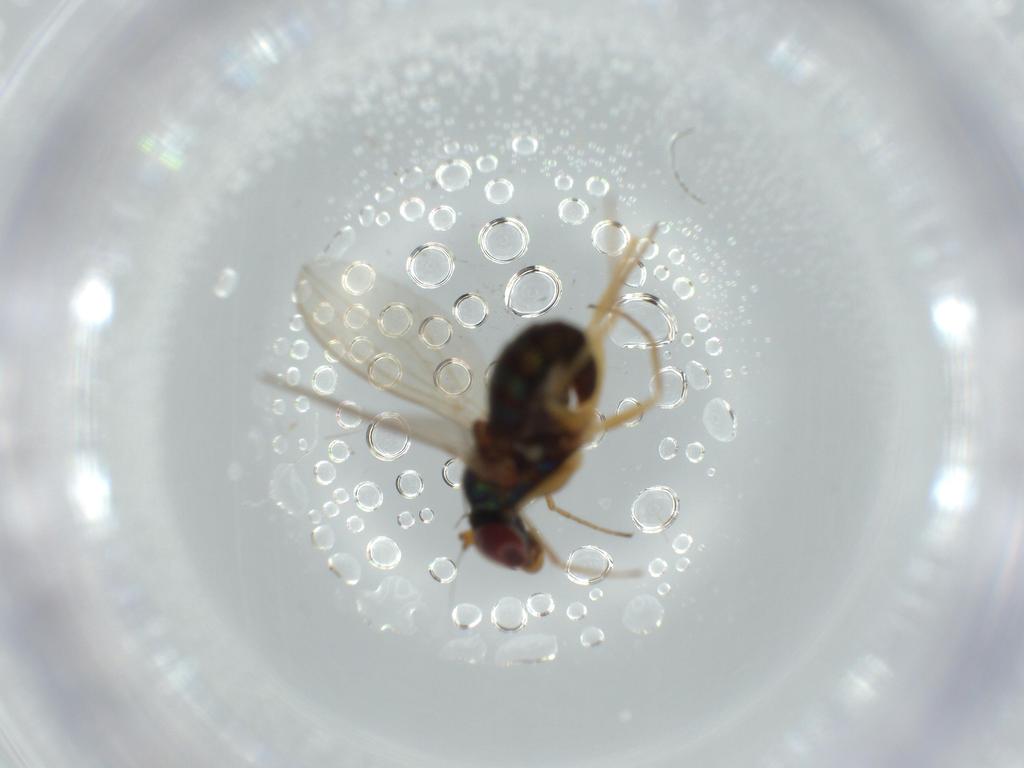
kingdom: Animalia
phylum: Arthropoda
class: Insecta
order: Diptera
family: Dolichopodidae
